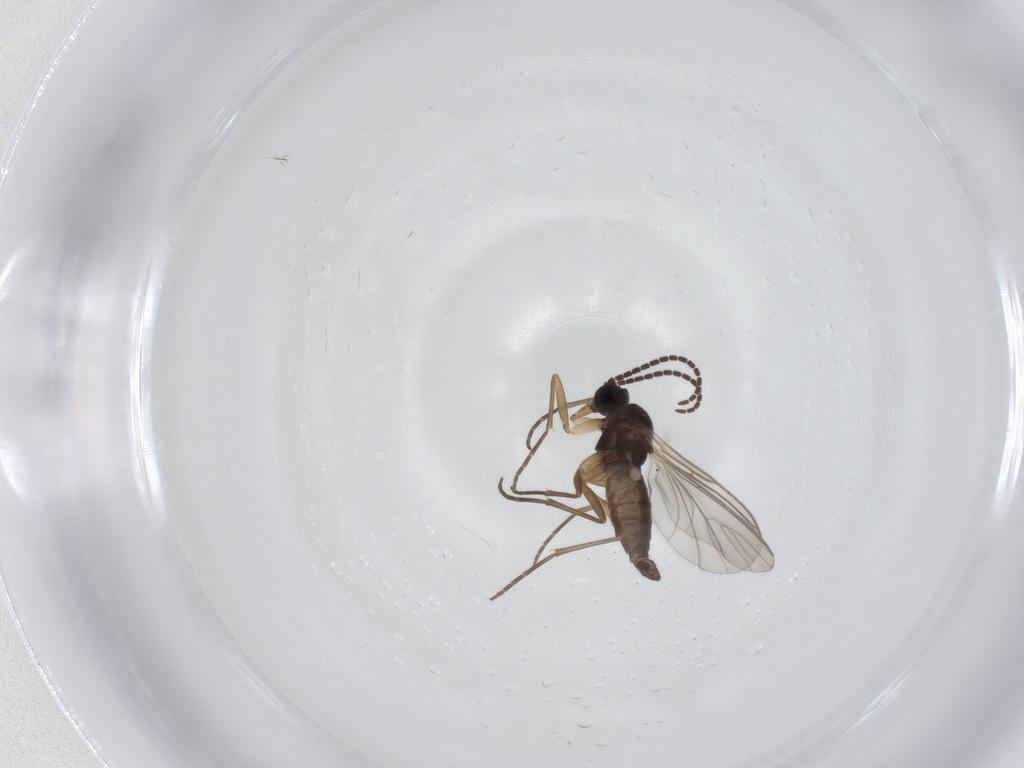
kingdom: Animalia
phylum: Arthropoda
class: Insecta
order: Diptera
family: Sciaridae
